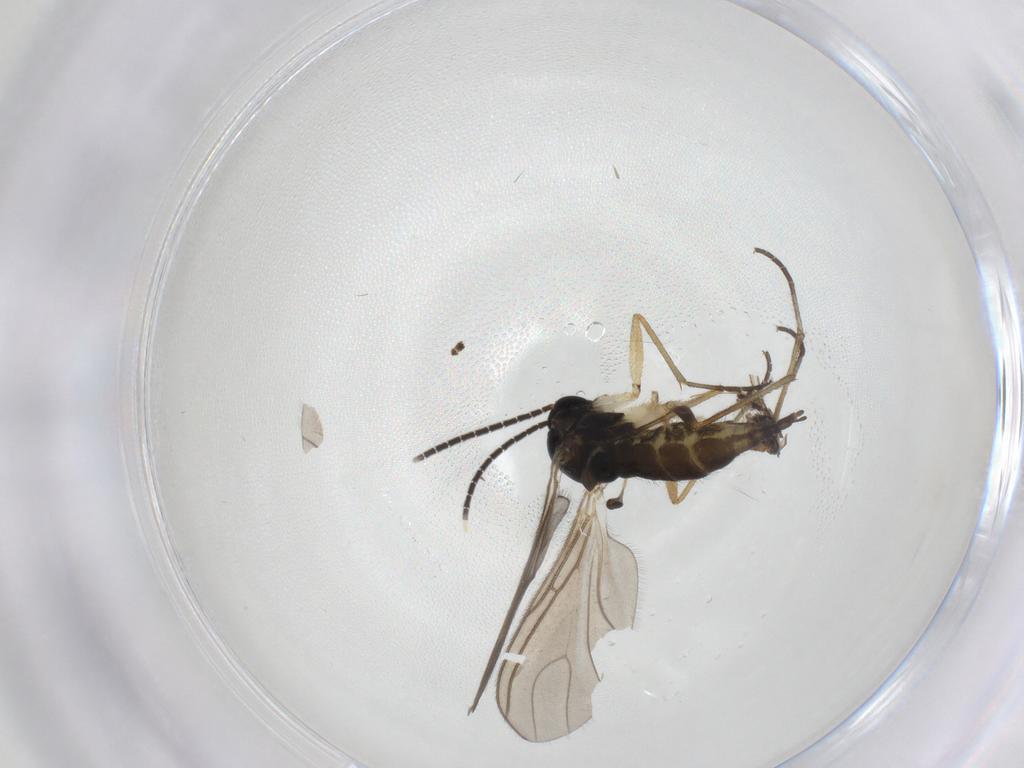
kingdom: Animalia
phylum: Arthropoda
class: Insecta
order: Diptera
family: Sciaridae
